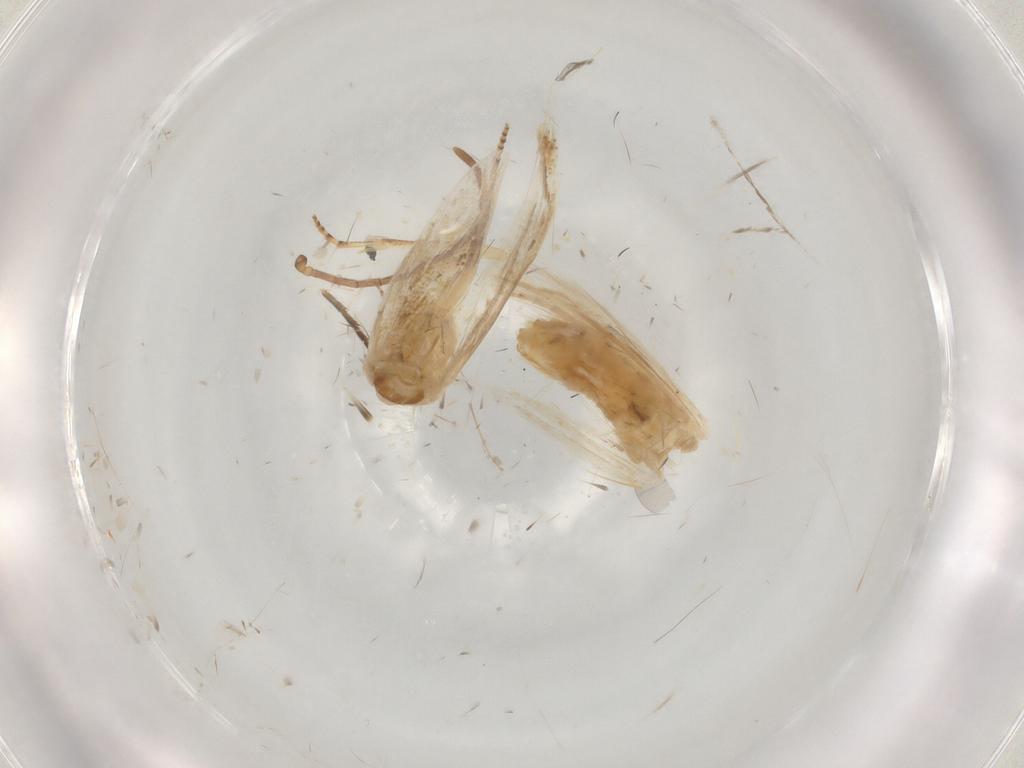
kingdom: Animalia
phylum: Arthropoda
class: Insecta
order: Lepidoptera
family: Noctuidae
